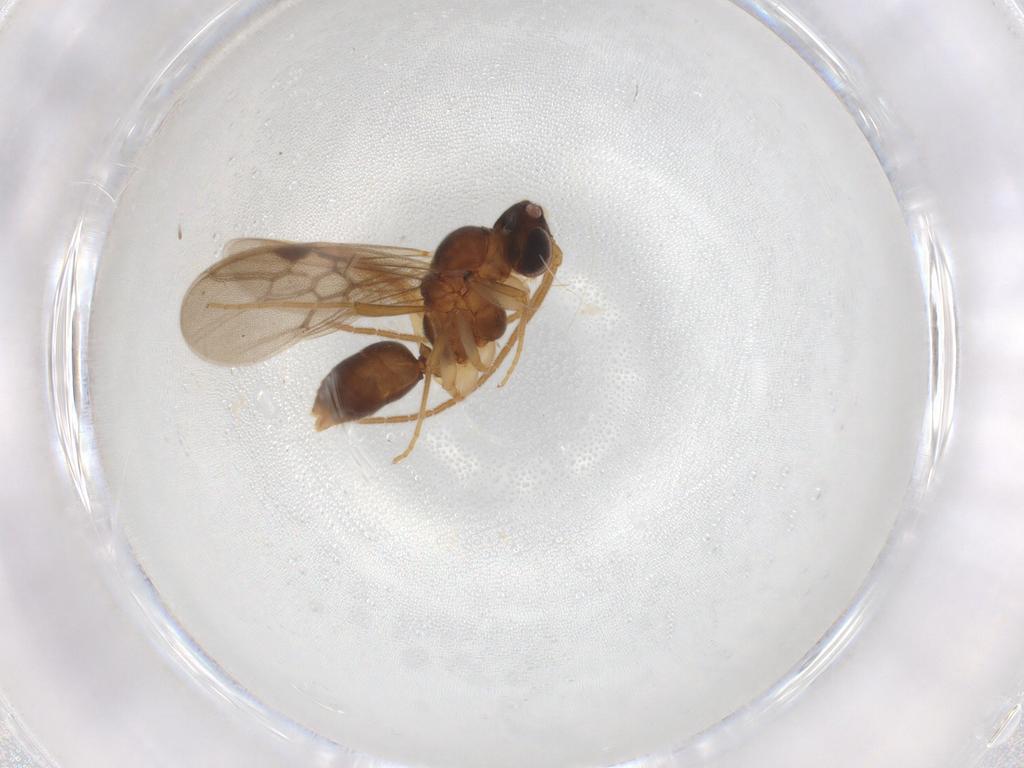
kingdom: Animalia
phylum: Arthropoda
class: Insecta
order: Hymenoptera
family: Formicidae
